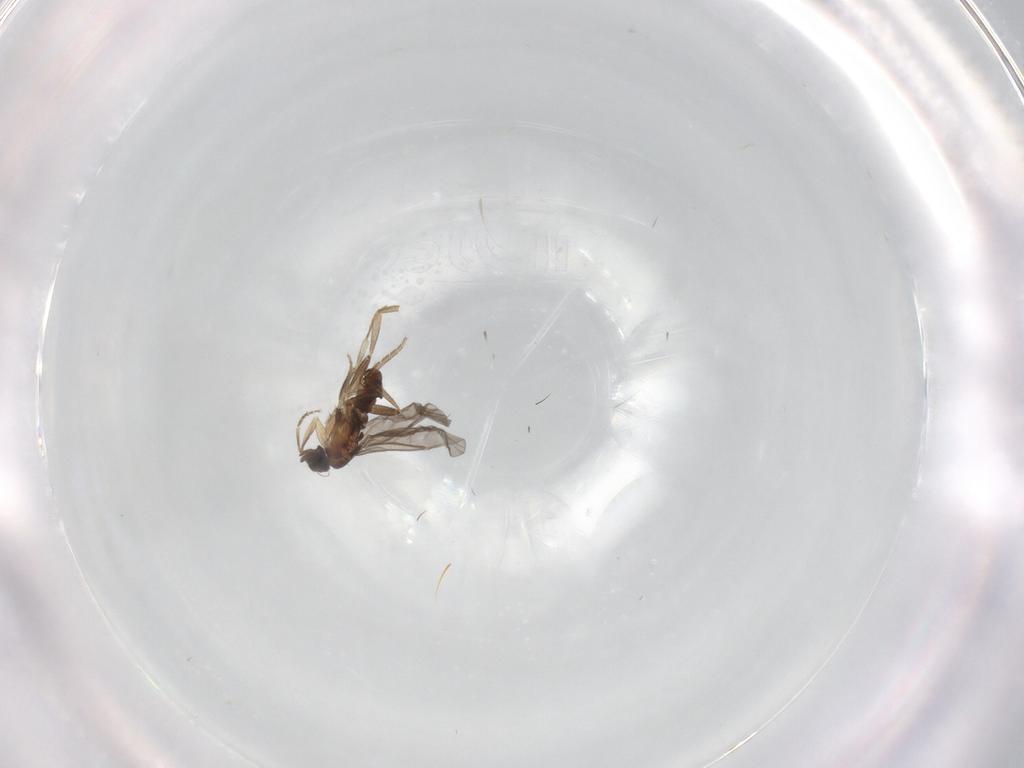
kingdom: Animalia
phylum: Arthropoda
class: Insecta
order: Diptera
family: Limoniidae
